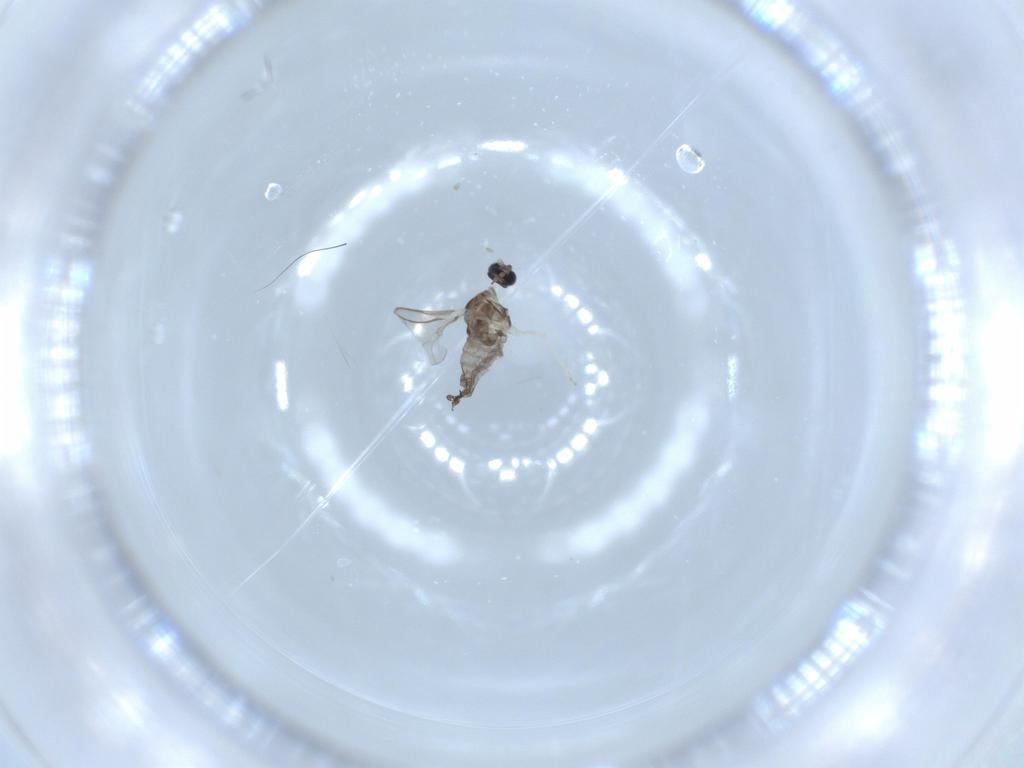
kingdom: Animalia
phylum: Arthropoda
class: Insecta
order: Diptera
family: Cecidomyiidae
